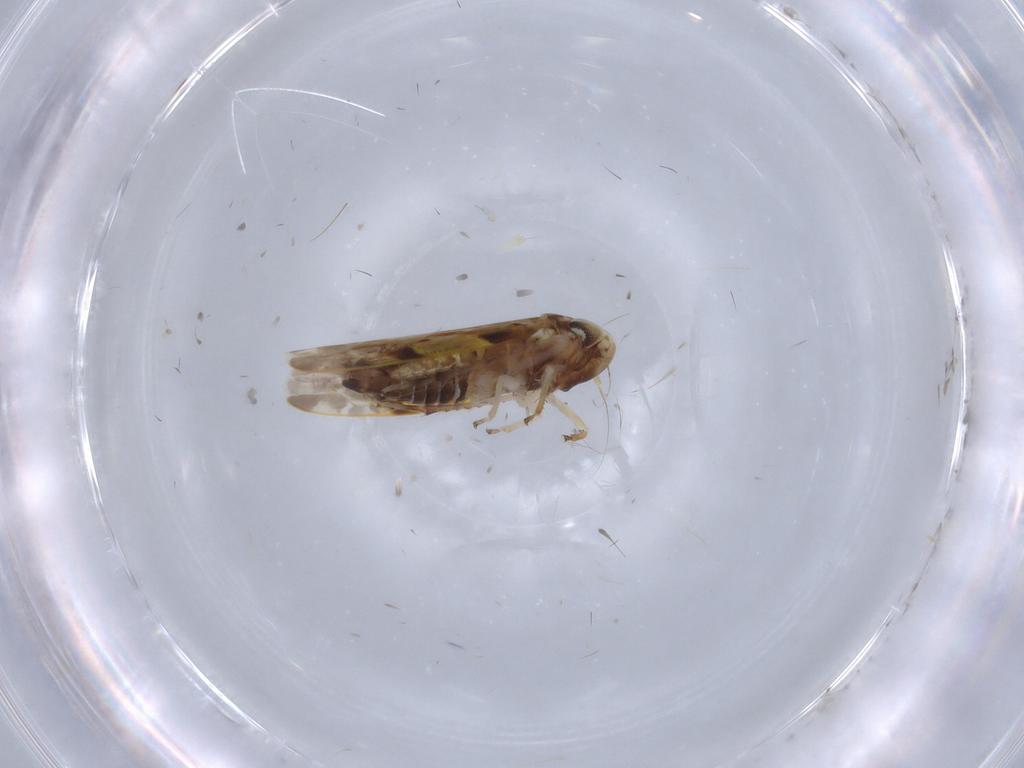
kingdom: Animalia
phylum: Arthropoda
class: Insecta
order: Hemiptera
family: Cicadellidae
